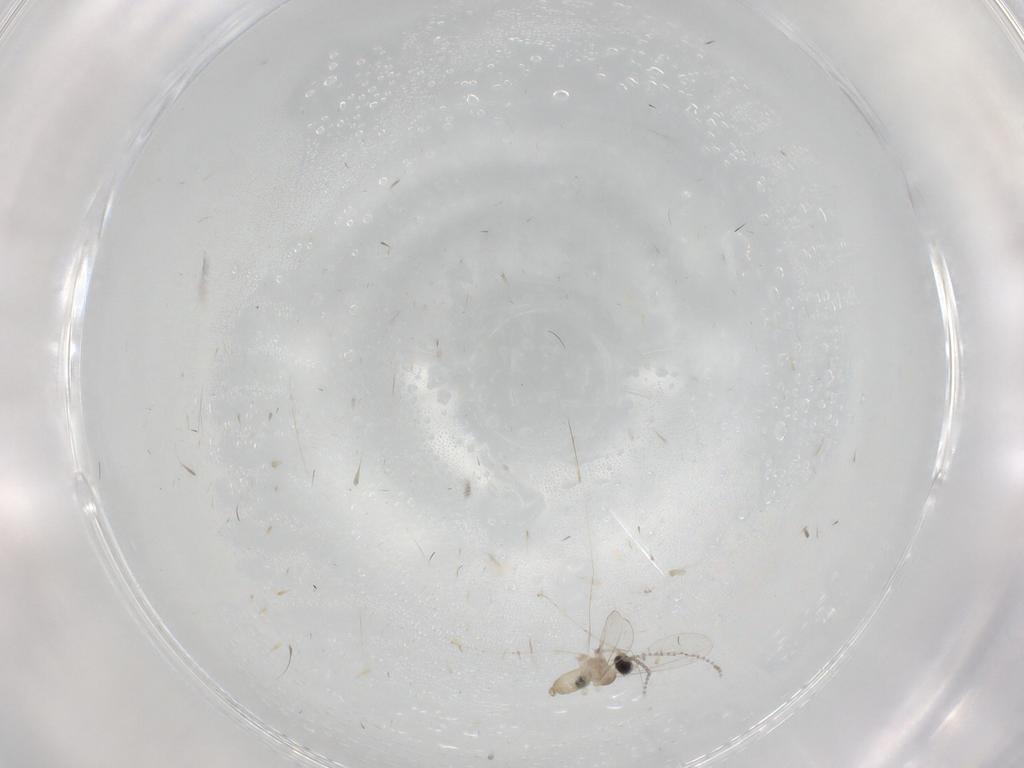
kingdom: Animalia
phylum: Arthropoda
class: Insecta
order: Diptera
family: Cecidomyiidae
